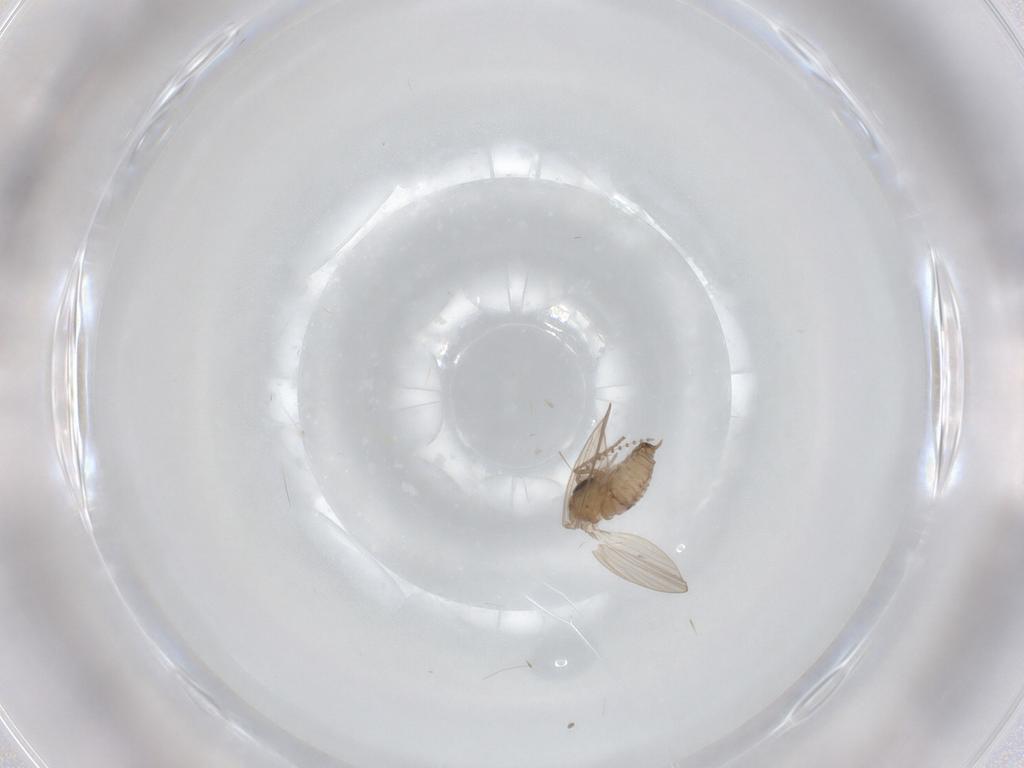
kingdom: Animalia
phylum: Arthropoda
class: Insecta
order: Diptera
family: Psychodidae
